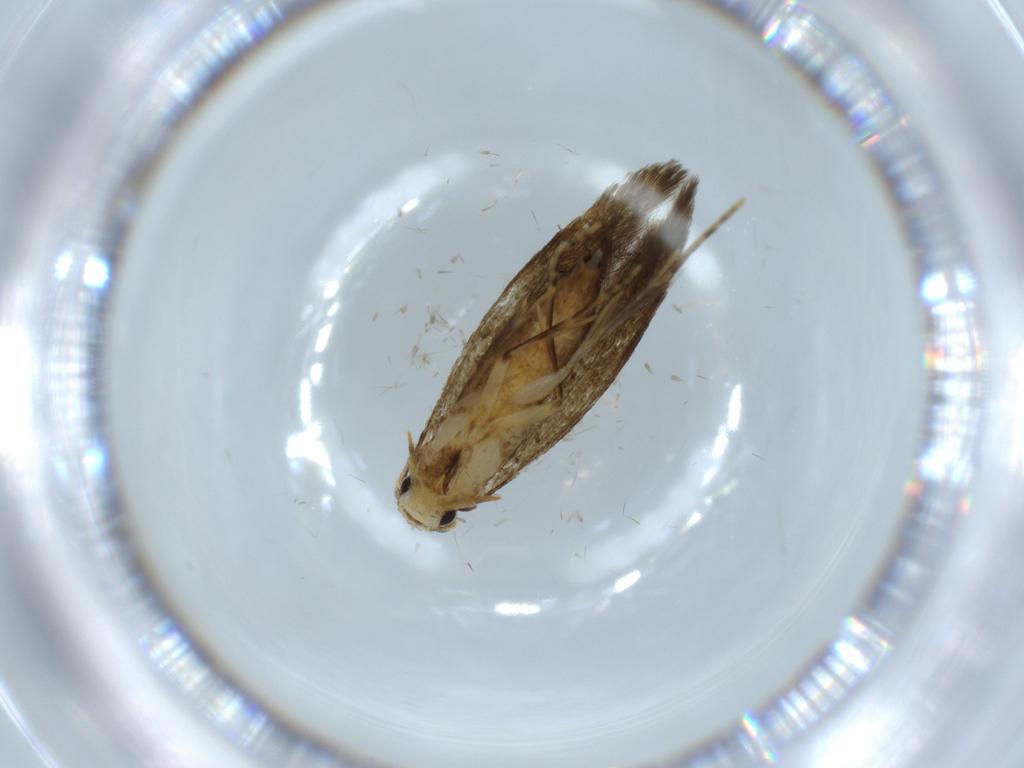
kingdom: Animalia
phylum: Arthropoda
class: Insecta
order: Lepidoptera
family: Tineidae
